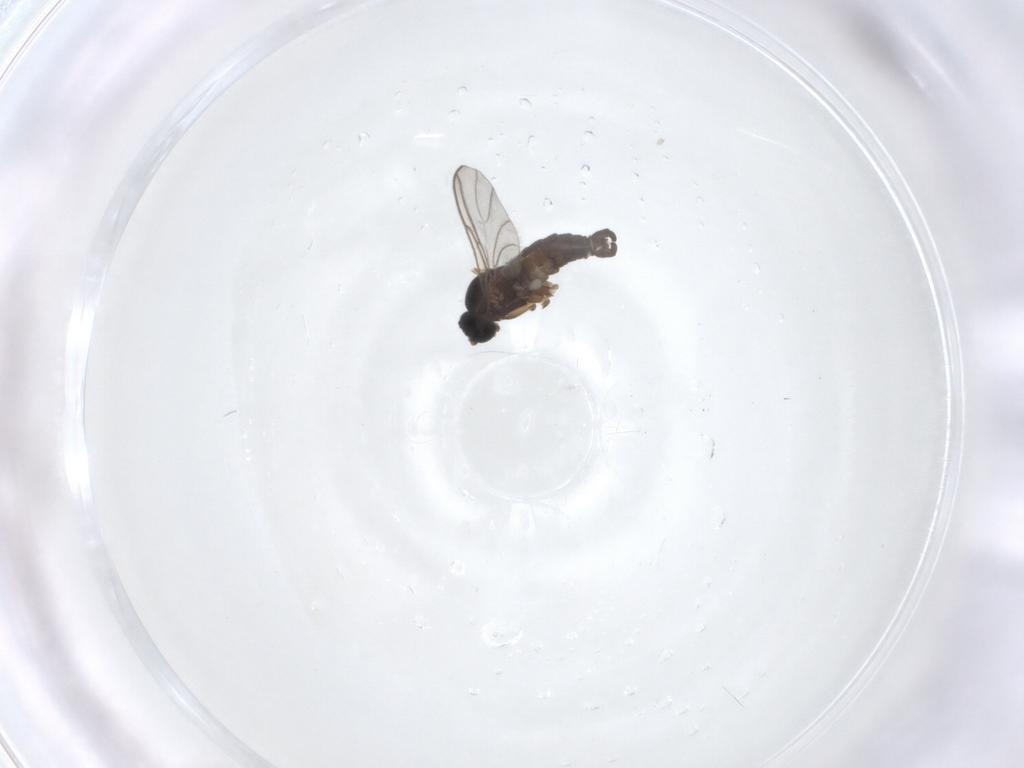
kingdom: Animalia
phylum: Arthropoda
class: Insecta
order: Diptera
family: Sciaridae
